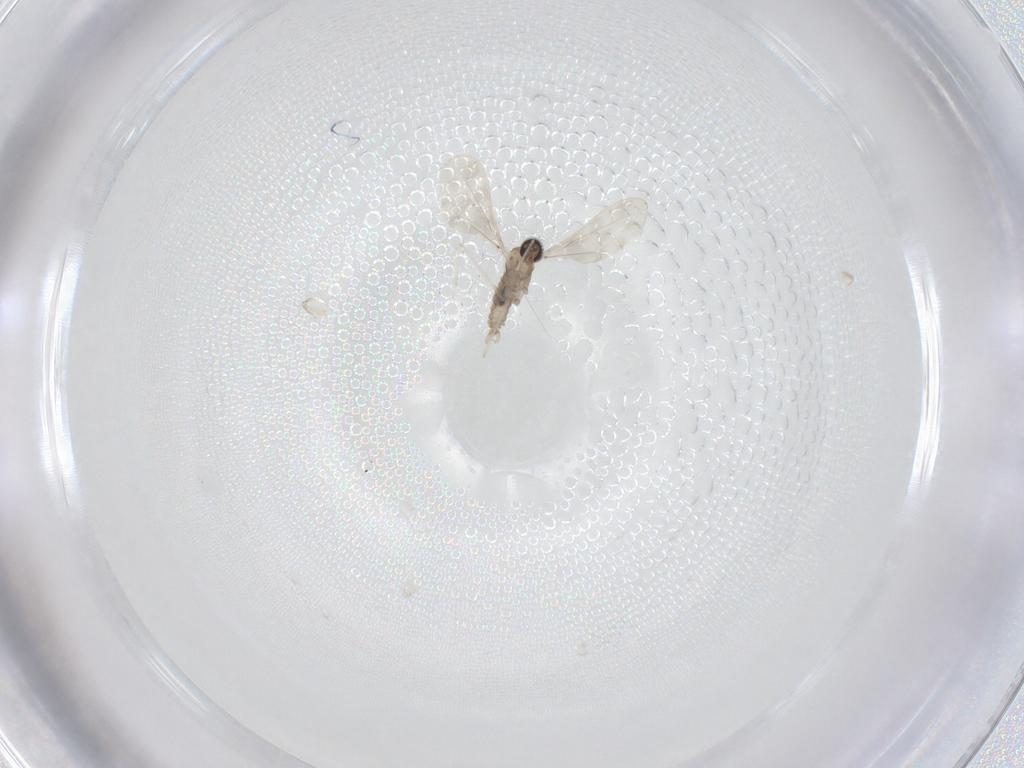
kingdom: Animalia
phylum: Arthropoda
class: Insecta
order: Diptera
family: Cecidomyiidae
